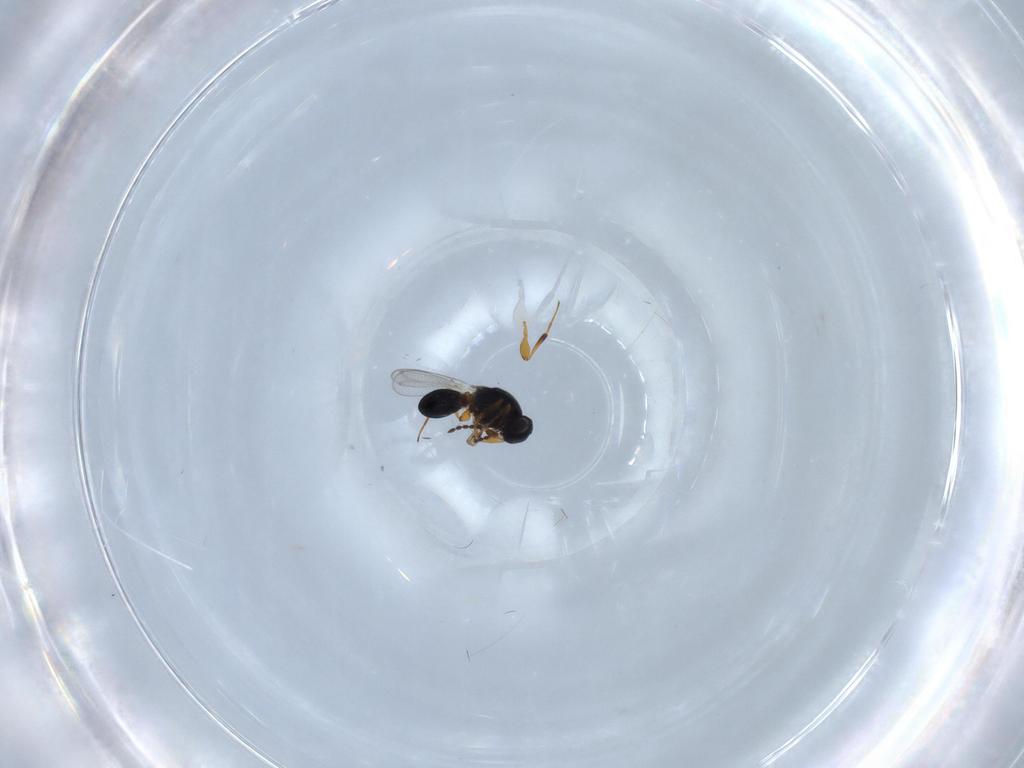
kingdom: Animalia
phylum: Arthropoda
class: Insecta
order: Hymenoptera
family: Platygastridae
